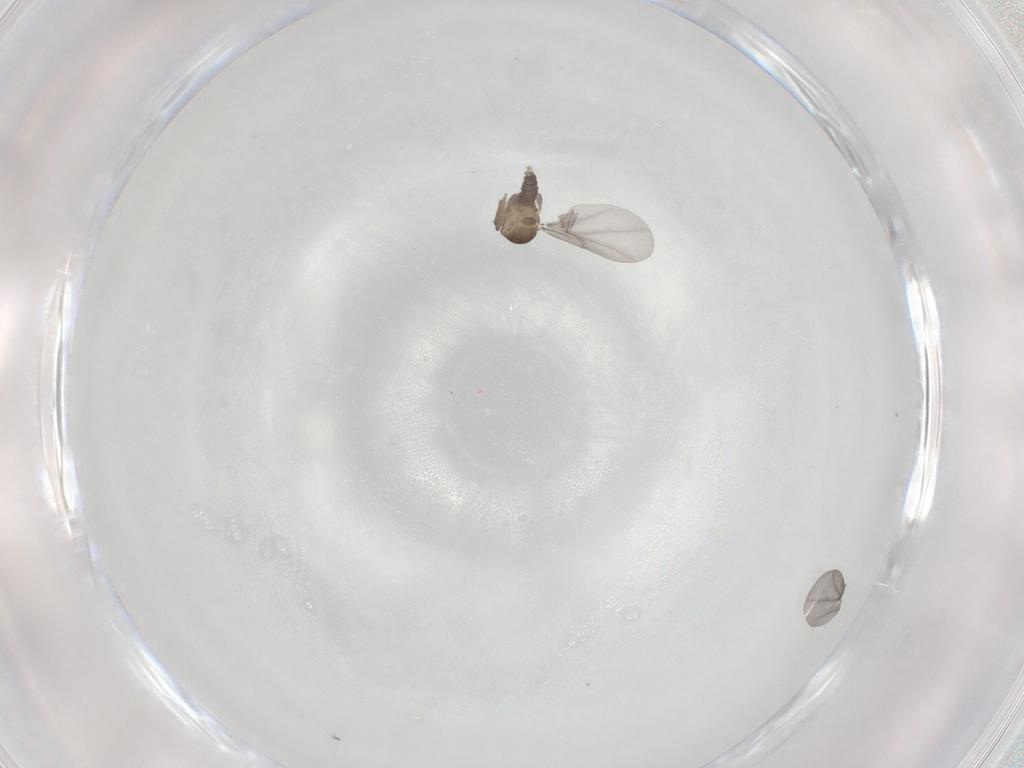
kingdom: Animalia
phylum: Arthropoda
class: Insecta
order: Diptera
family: Phoridae
